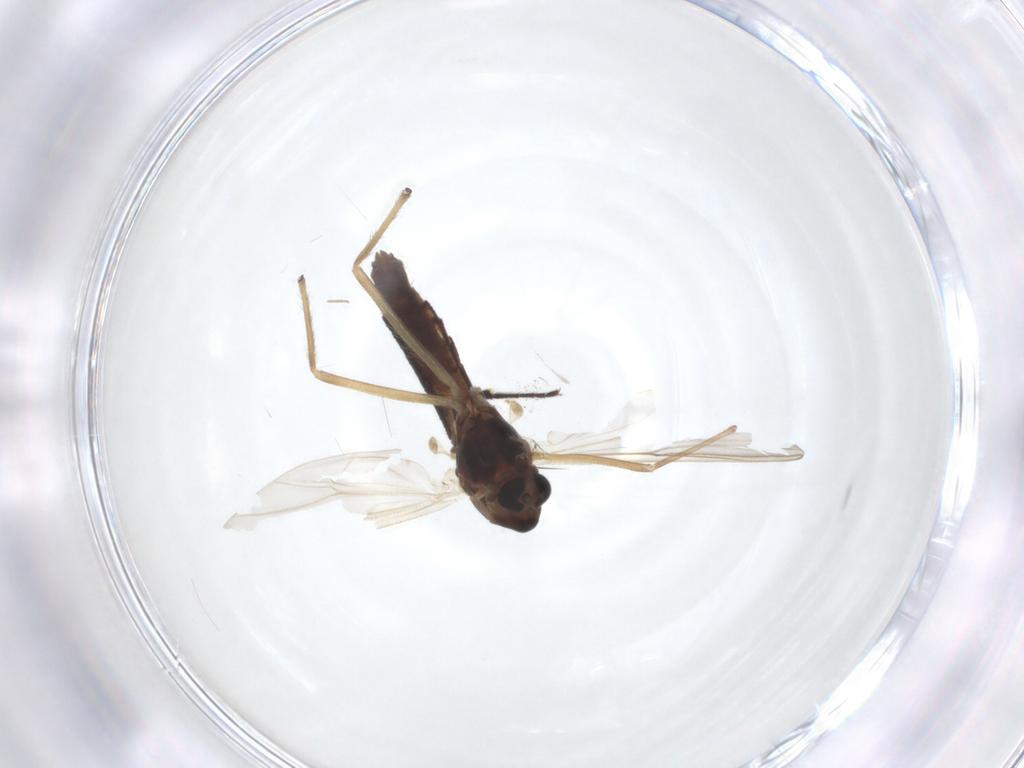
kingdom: Animalia
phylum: Arthropoda
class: Insecta
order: Diptera
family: Chironomidae
